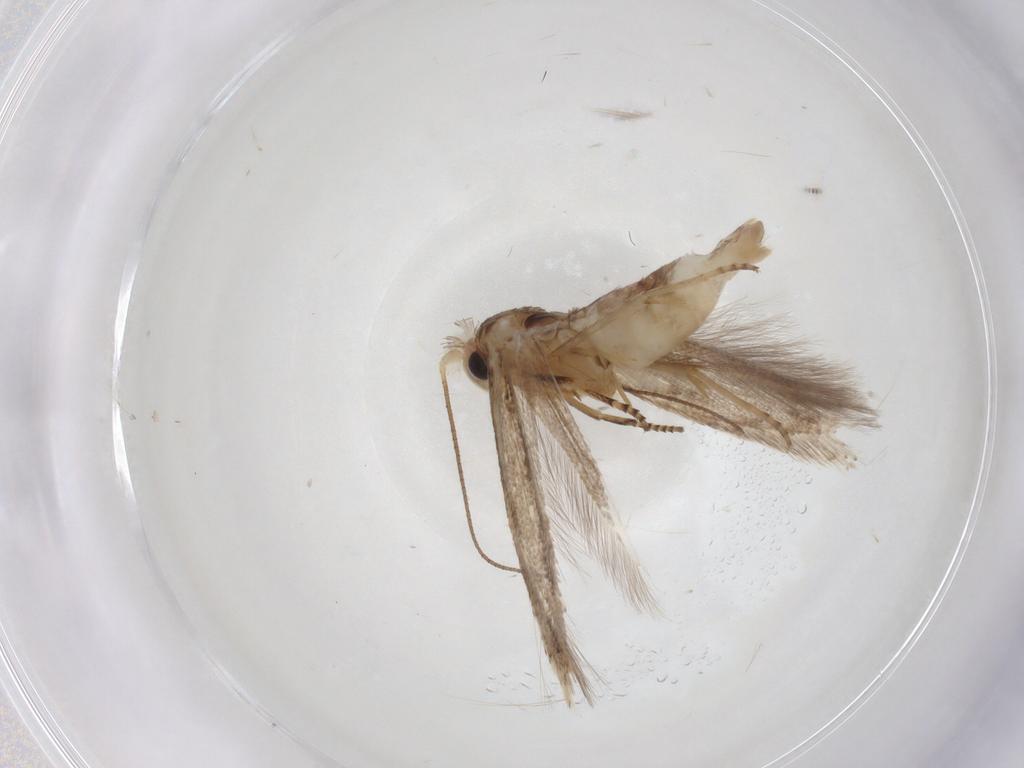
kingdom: Animalia
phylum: Arthropoda
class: Insecta
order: Lepidoptera
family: Bucculatricidae
